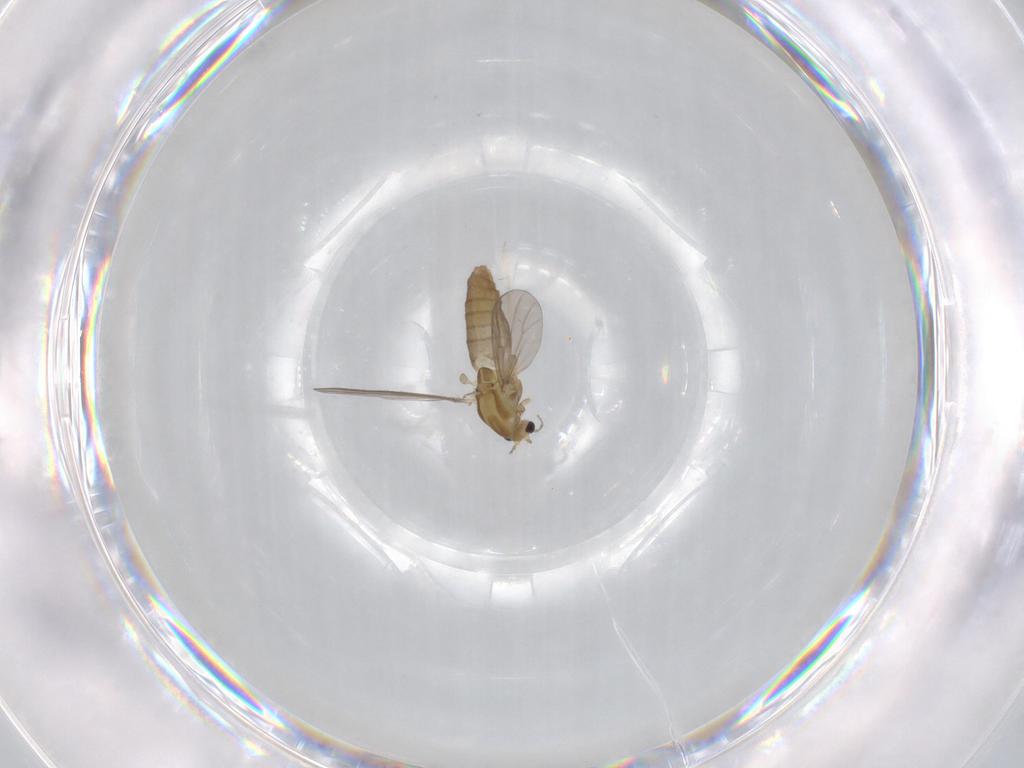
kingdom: Animalia
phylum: Arthropoda
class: Insecta
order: Diptera
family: Chironomidae
